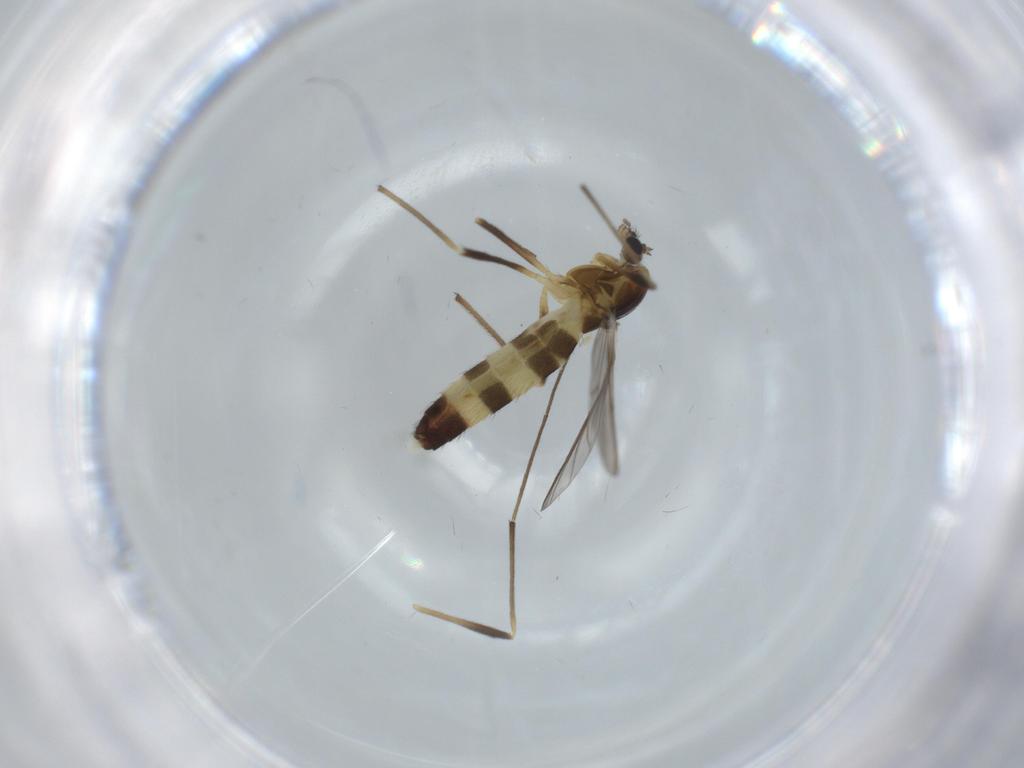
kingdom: Animalia
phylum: Arthropoda
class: Insecta
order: Diptera
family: Chironomidae
